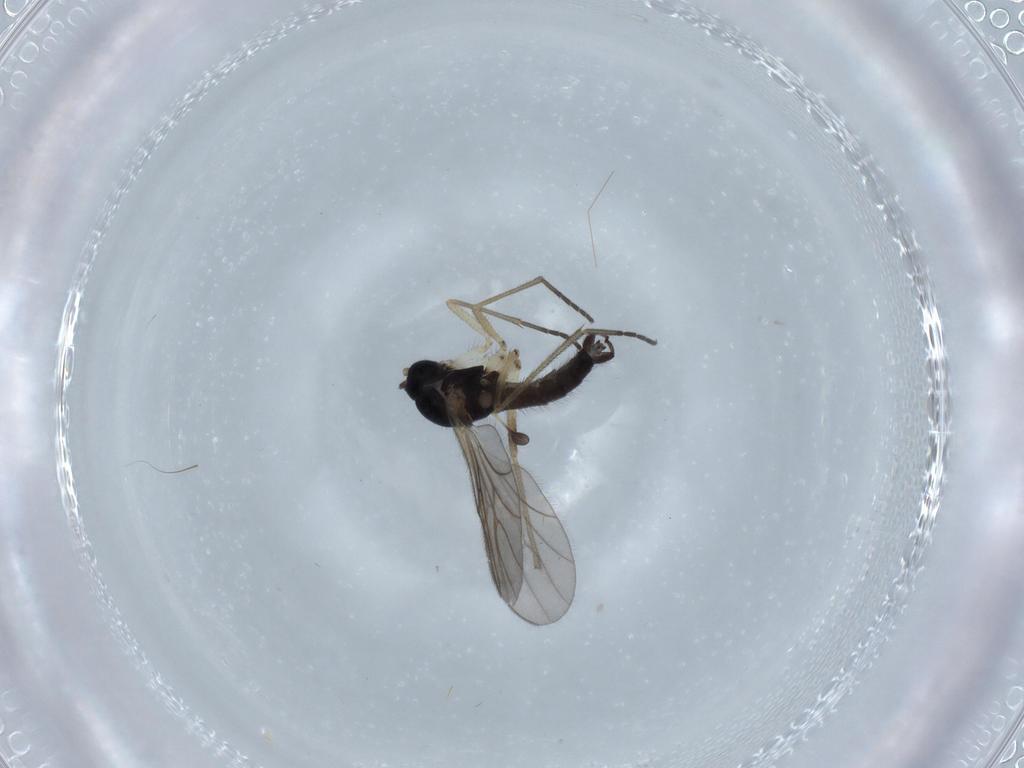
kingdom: Animalia
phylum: Arthropoda
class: Insecta
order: Diptera
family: Sciaridae
